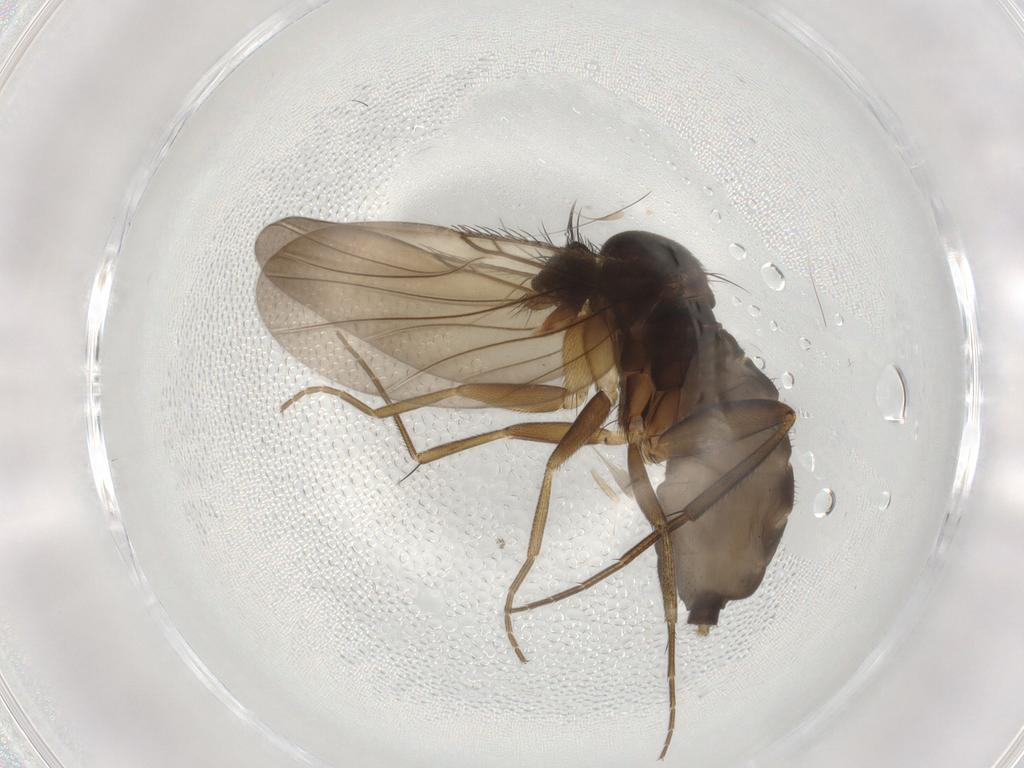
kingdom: Animalia
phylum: Arthropoda
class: Insecta
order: Diptera
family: Phoridae
